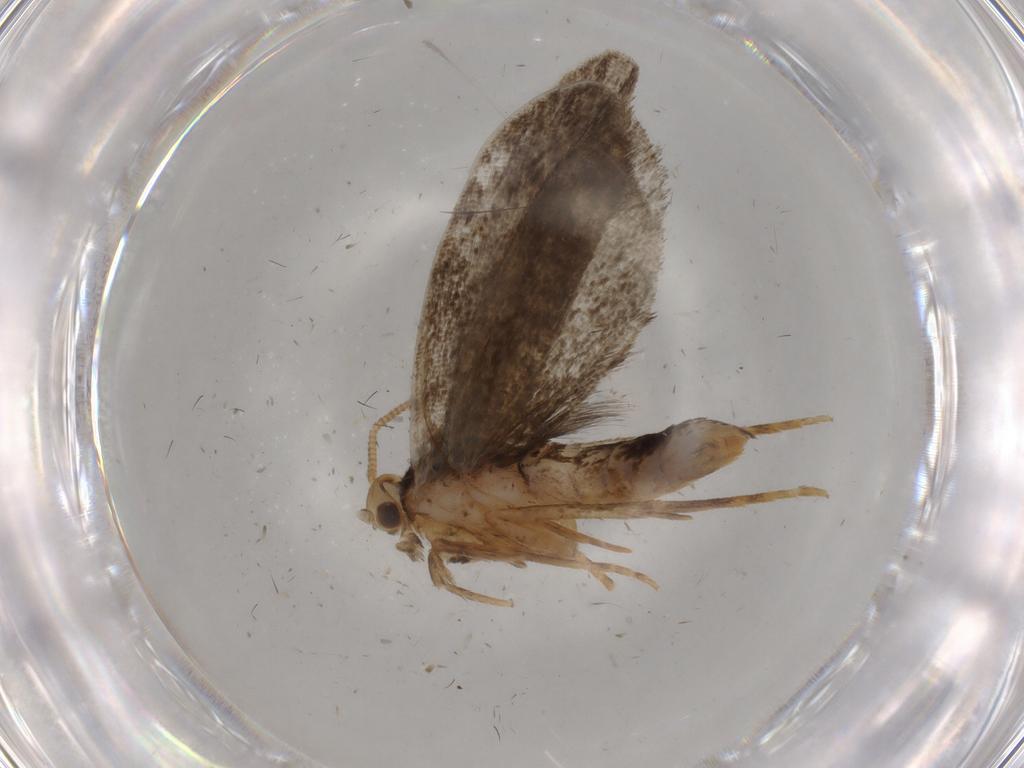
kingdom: Animalia
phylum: Arthropoda
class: Insecta
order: Lepidoptera
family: Dryadaulidae
